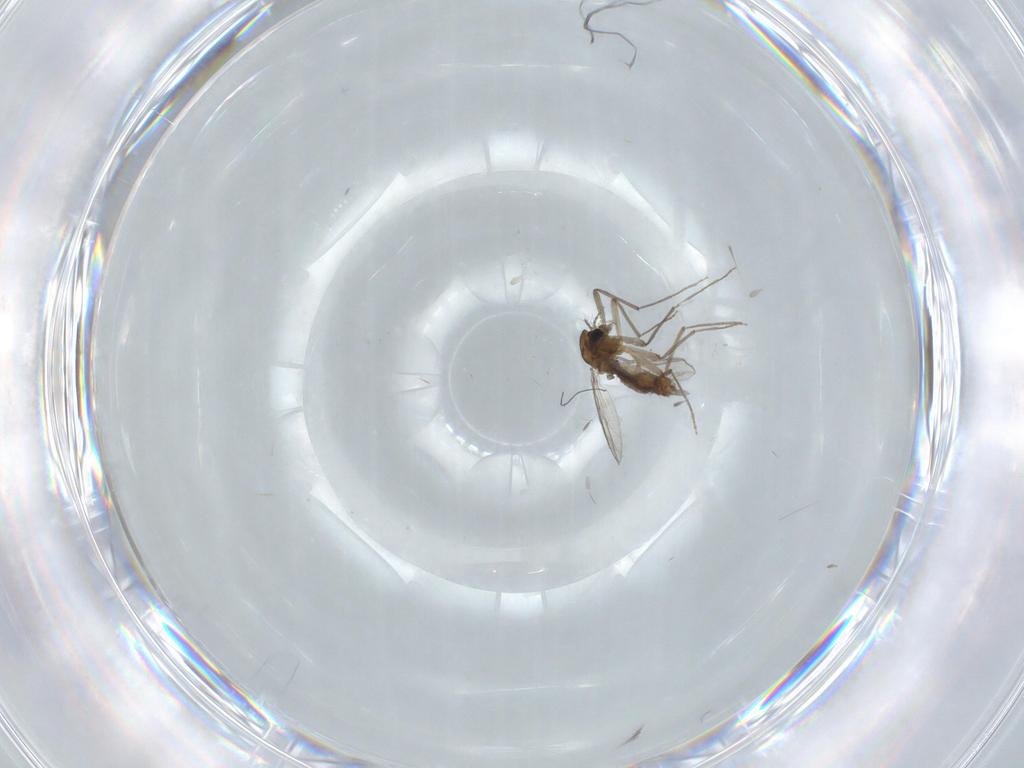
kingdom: Animalia
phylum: Arthropoda
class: Insecta
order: Diptera
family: Chironomidae
